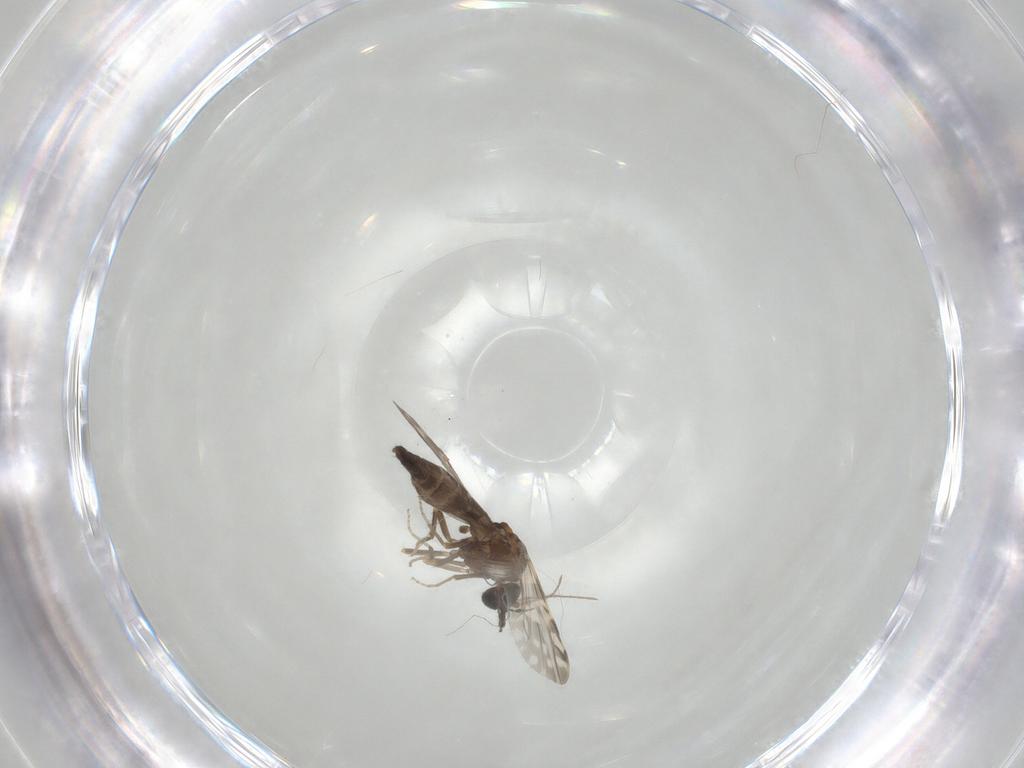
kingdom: Animalia
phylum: Arthropoda
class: Insecta
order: Diptera
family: Ceratopogonidae
